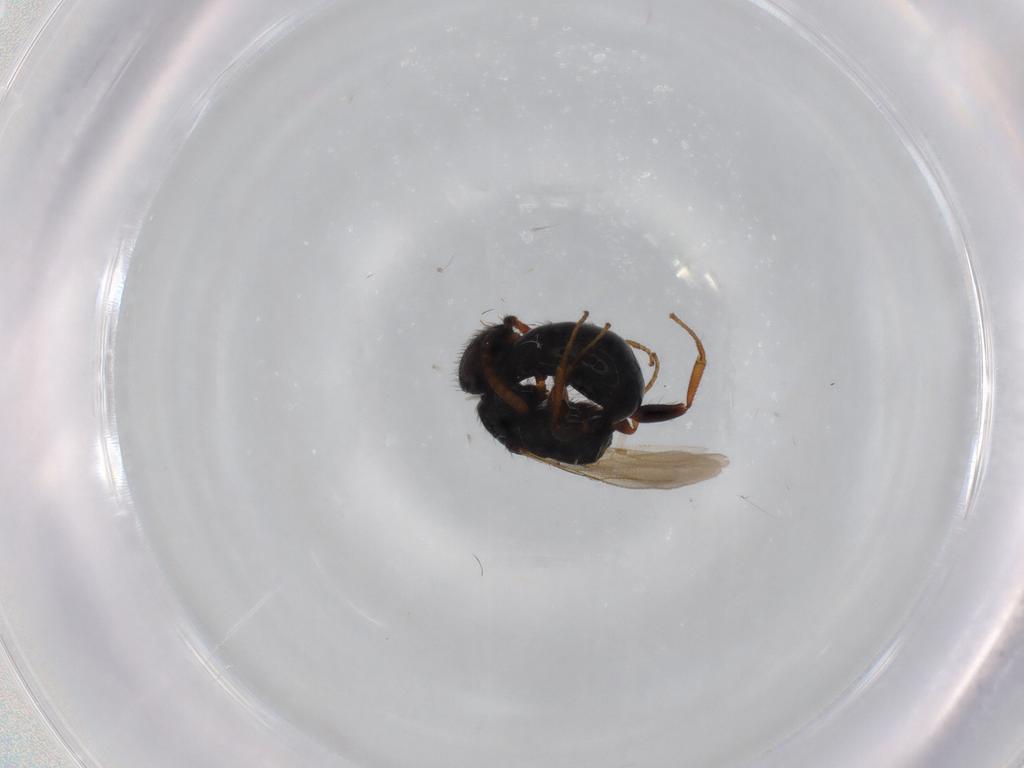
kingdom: Animalia
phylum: Arthropoda
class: Insecta
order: Hymenoptera
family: Bethylidae
